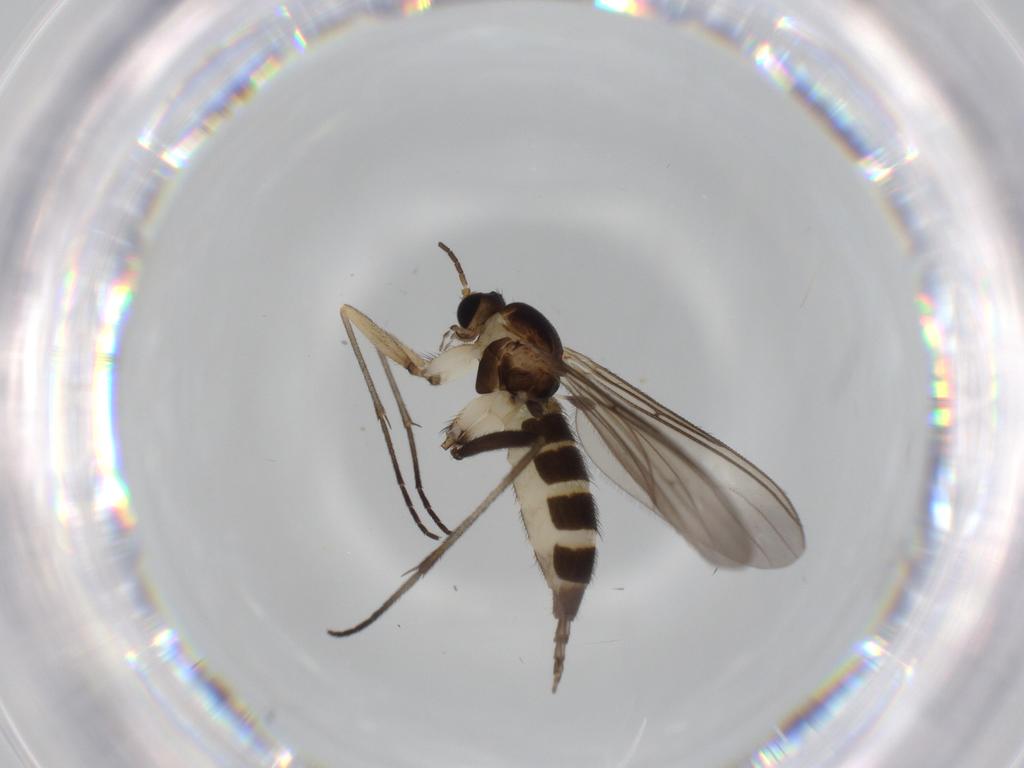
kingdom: Animalia
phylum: Arthropoda
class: Insecta
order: Diptera
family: Sciaridae
